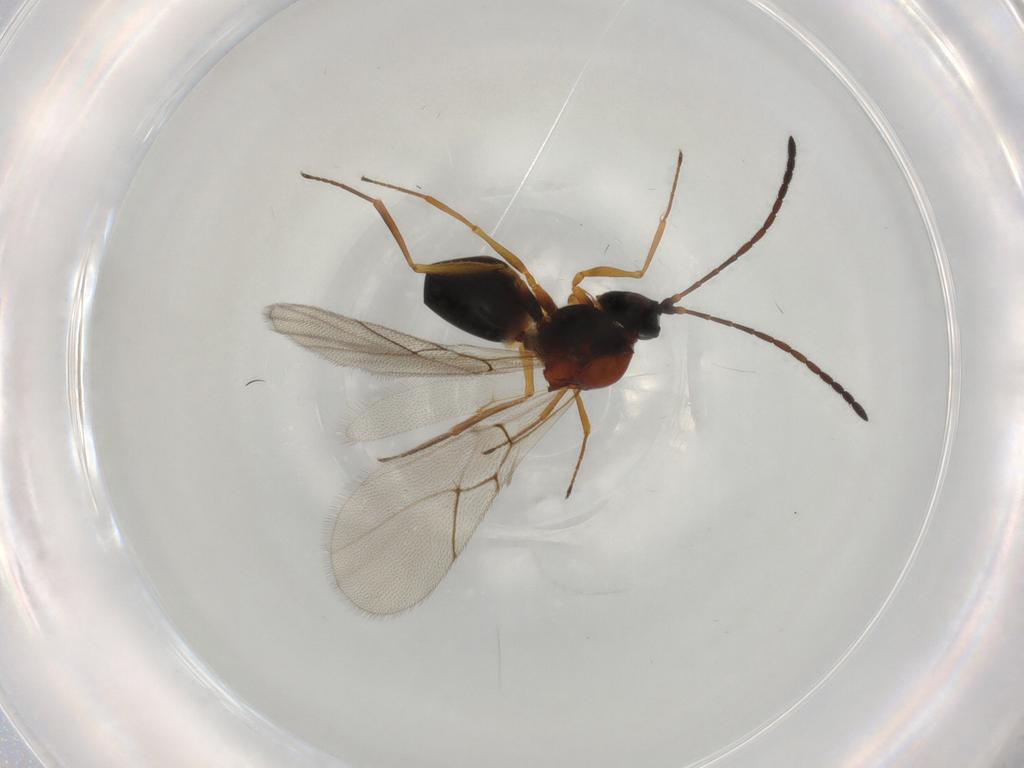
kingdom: Animalia
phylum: Arthropoda
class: Insecta
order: Hymenoptera
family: Figitidae
